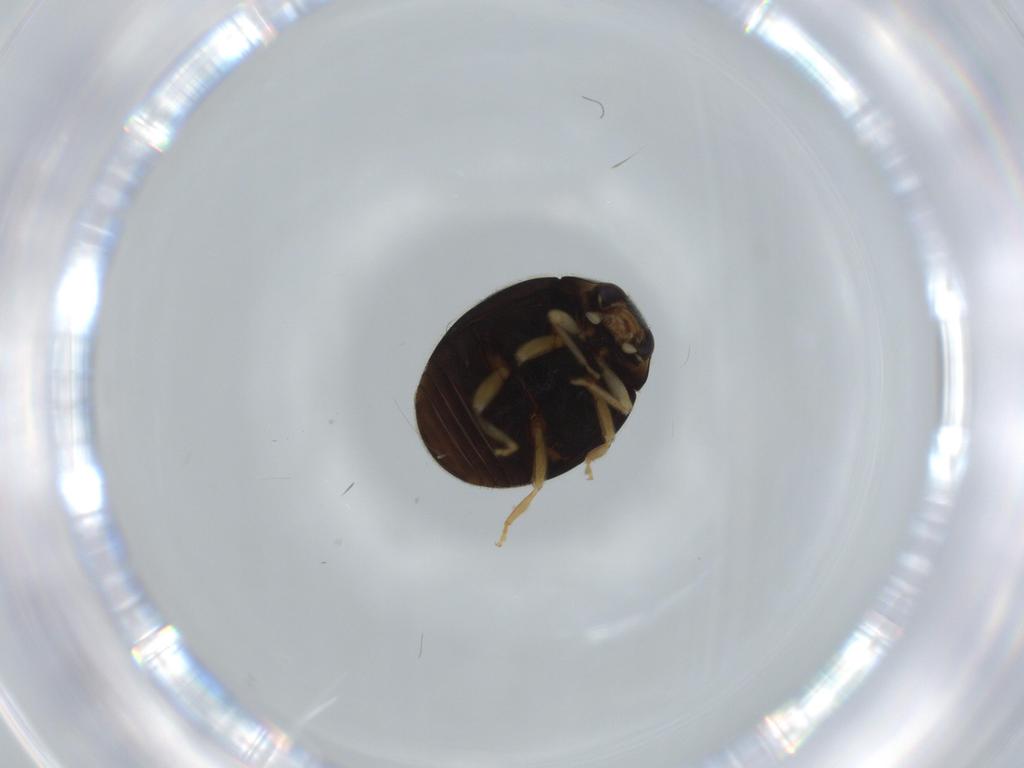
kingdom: Animalia
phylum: Arthropoda
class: Insecta
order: Coleoptera
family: Coccinellidae
